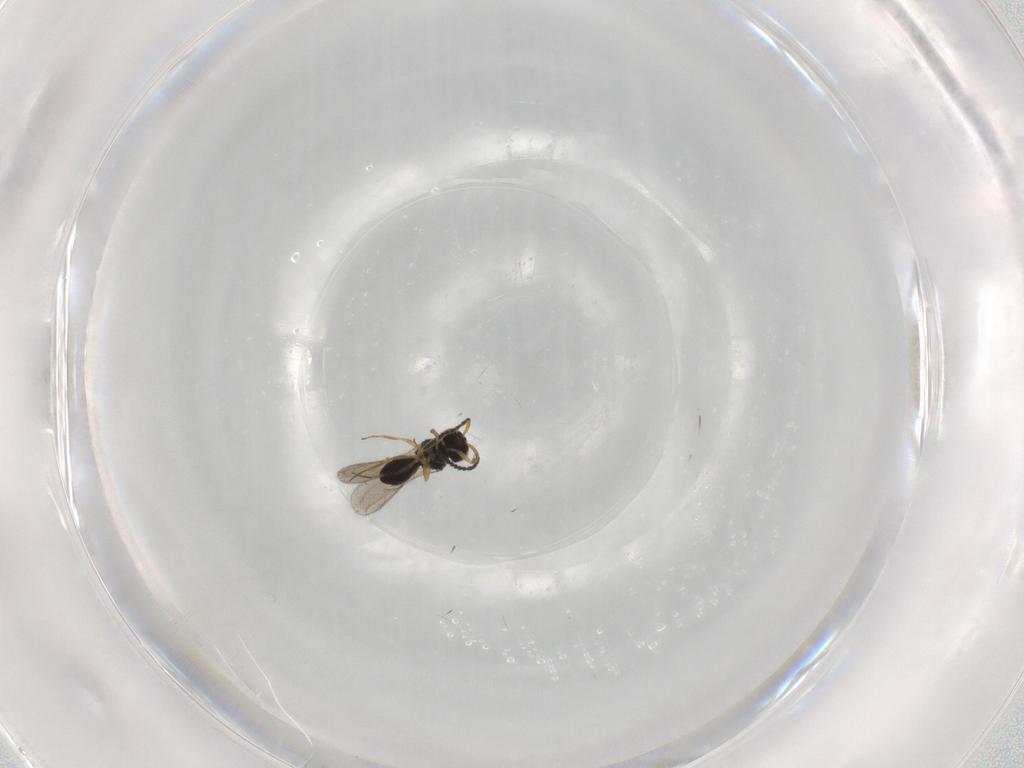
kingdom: Animalia
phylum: Arthropoda
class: Insecta
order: Hymenoptera
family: Scelionidae
